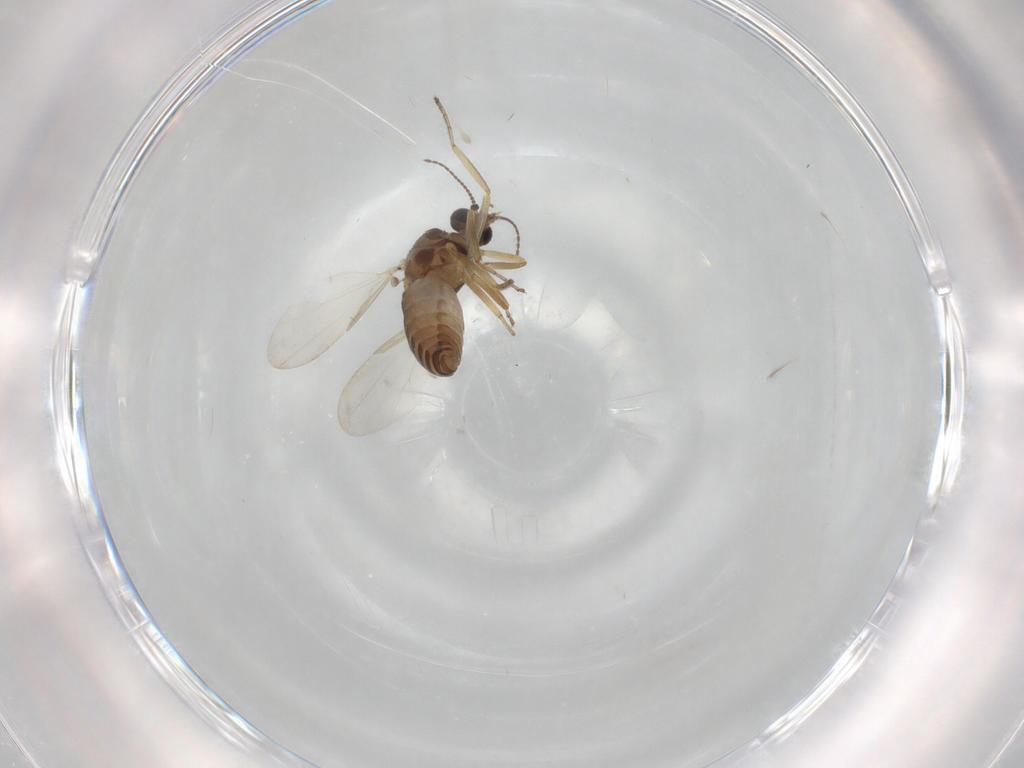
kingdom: Animalia
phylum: Arthropoda
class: Insecta
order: Diptera
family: Ceratopogonidae
